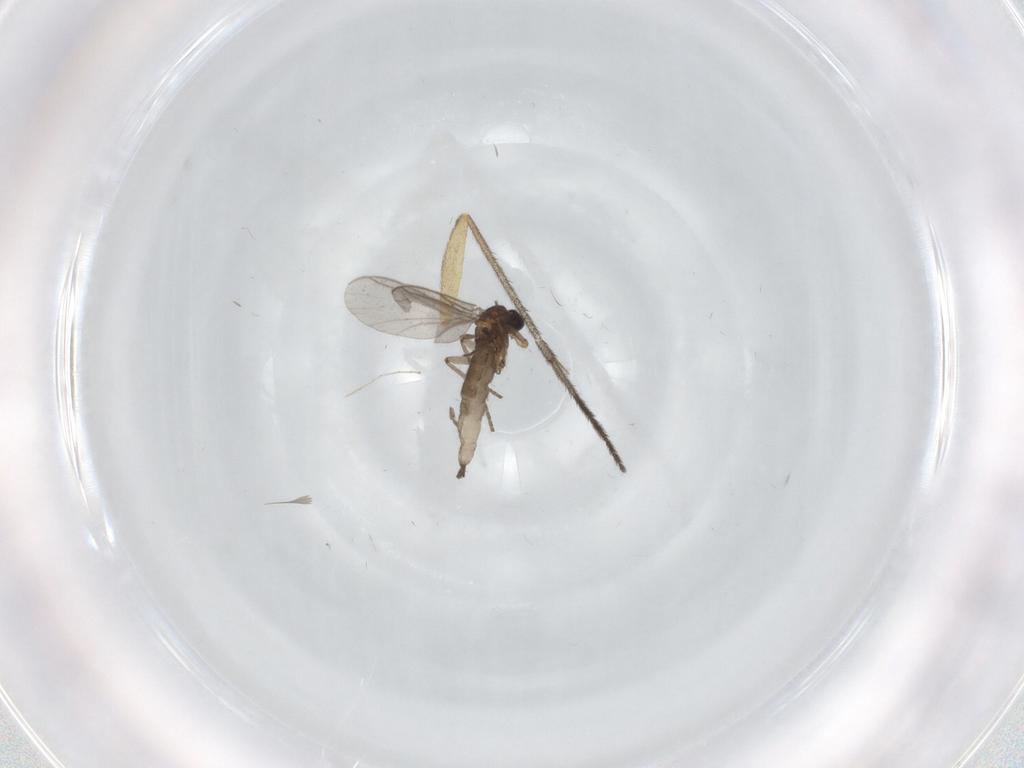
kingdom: Animalia
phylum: Arthropoda
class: Insecta
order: Diptera
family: Sciaridae
